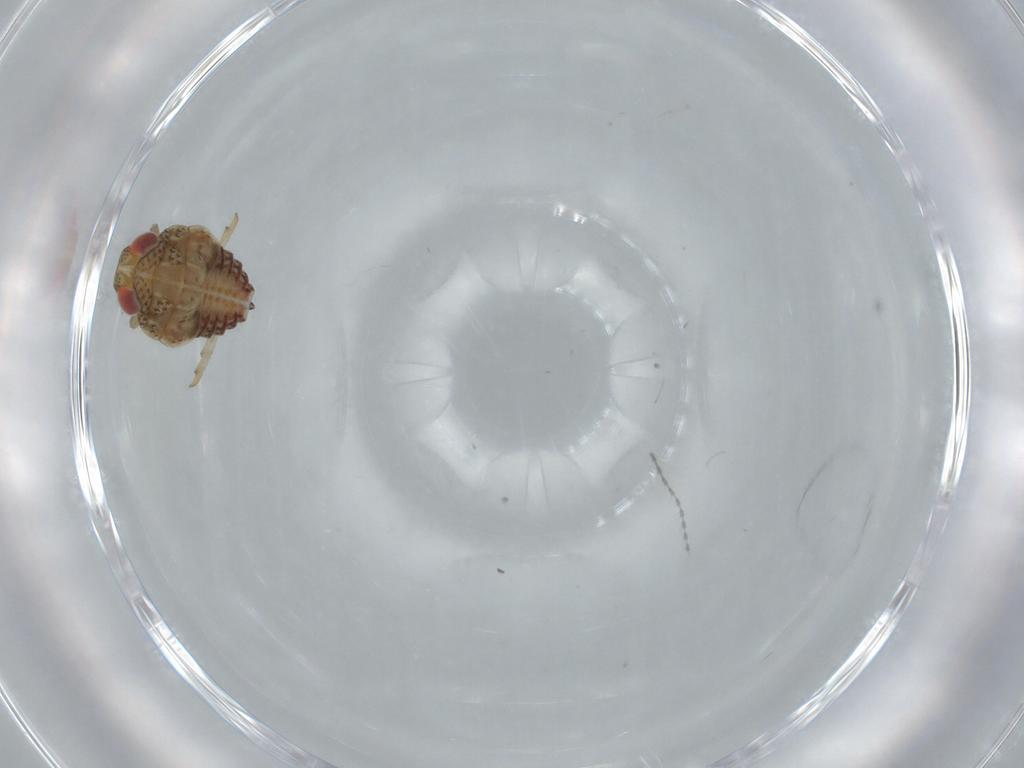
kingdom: Animalia
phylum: Arthropoda
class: Insecta
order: Hemiptera
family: Issidae
